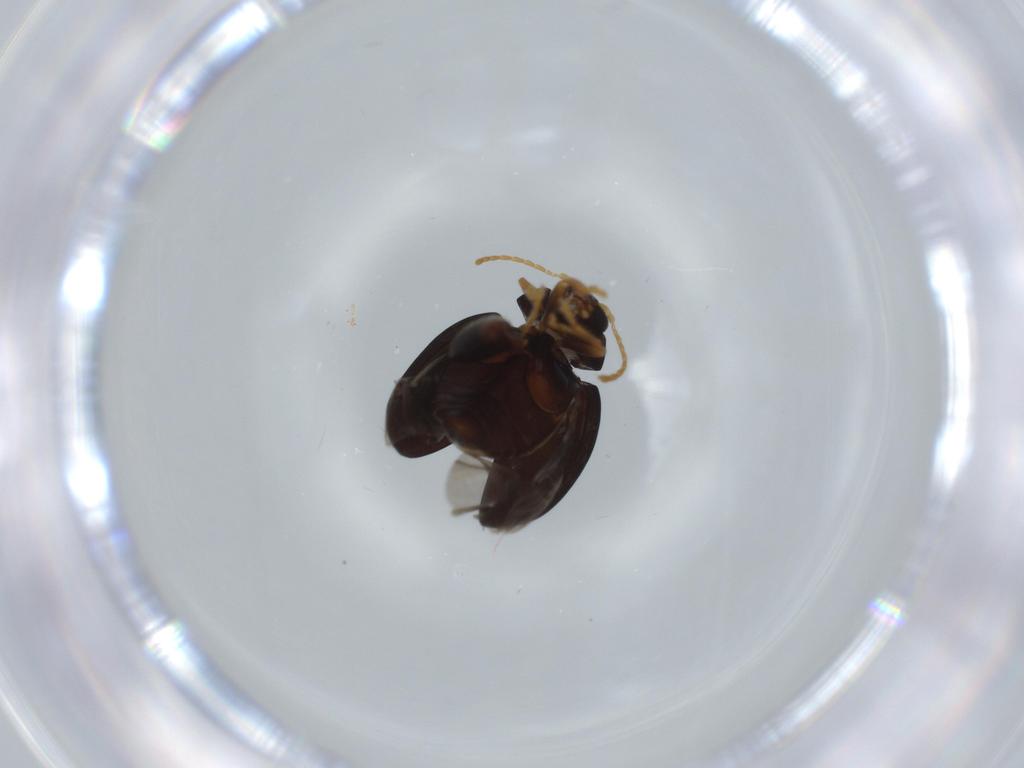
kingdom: Animalia
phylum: Arthropoda
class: Insecta
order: Coleoptera
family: Chrysomelidae
